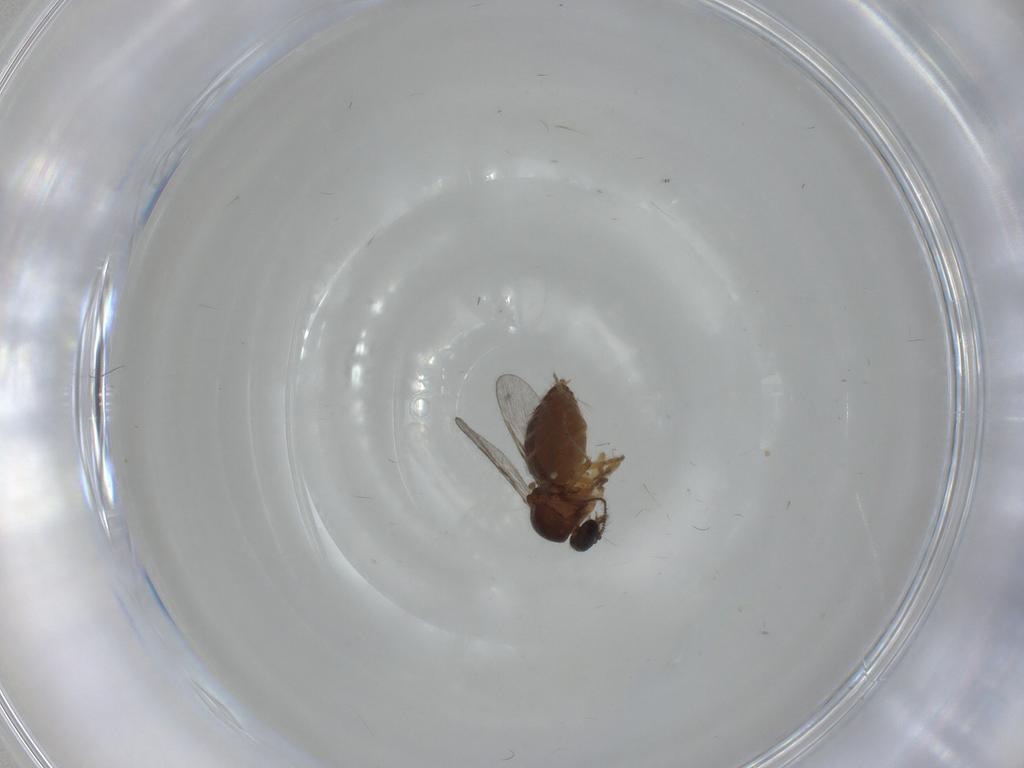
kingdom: Animalia
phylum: Arthropoda
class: Insecta
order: Diptera
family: Ceratopogonidae
